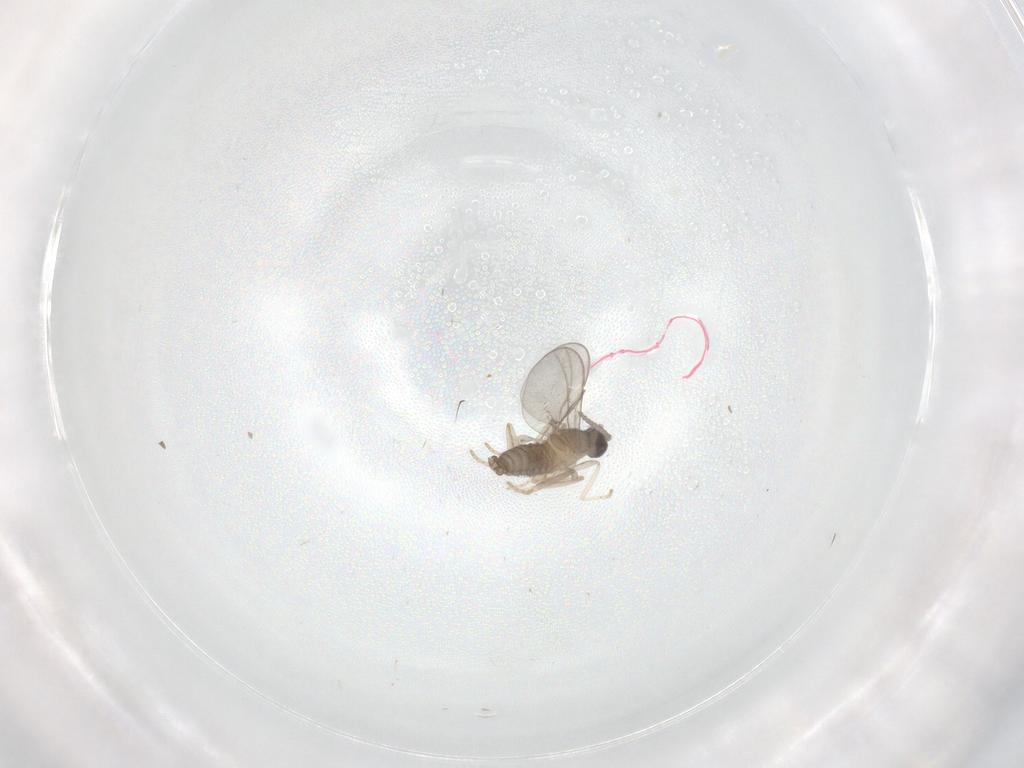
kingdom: Animalia
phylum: Arthropoda
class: Insecta
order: Diptera
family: Cecidomyiidae
